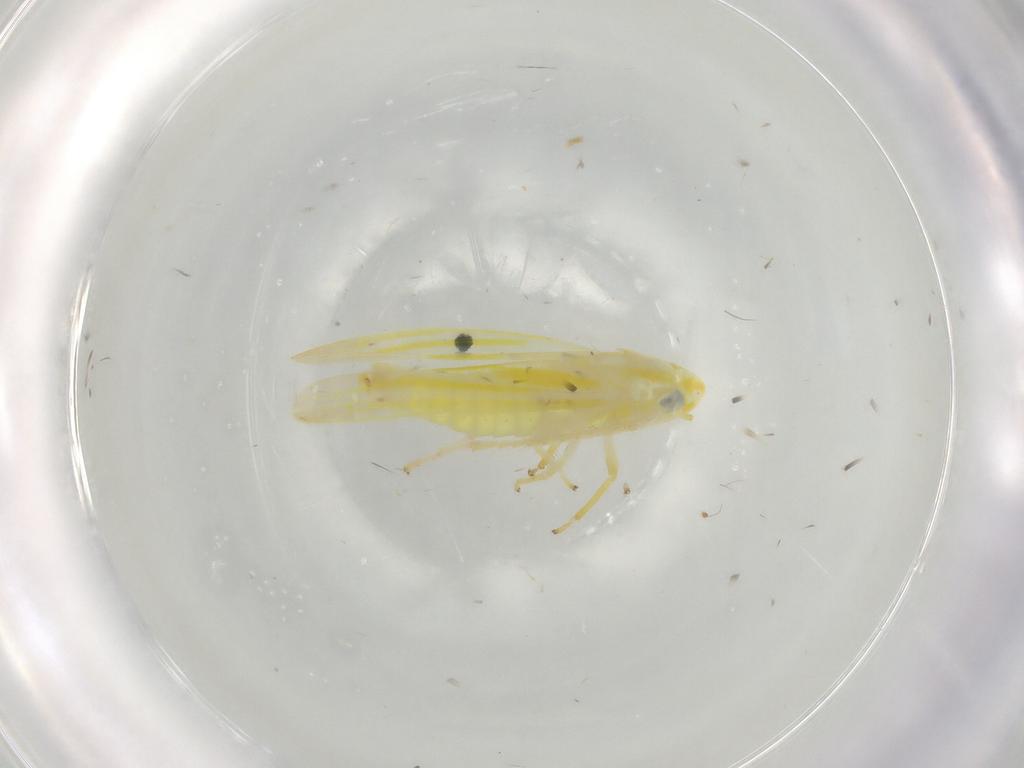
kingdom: Animalia
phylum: Arthropoda
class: Insecta
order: Hemiptera
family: Cicadellidae
